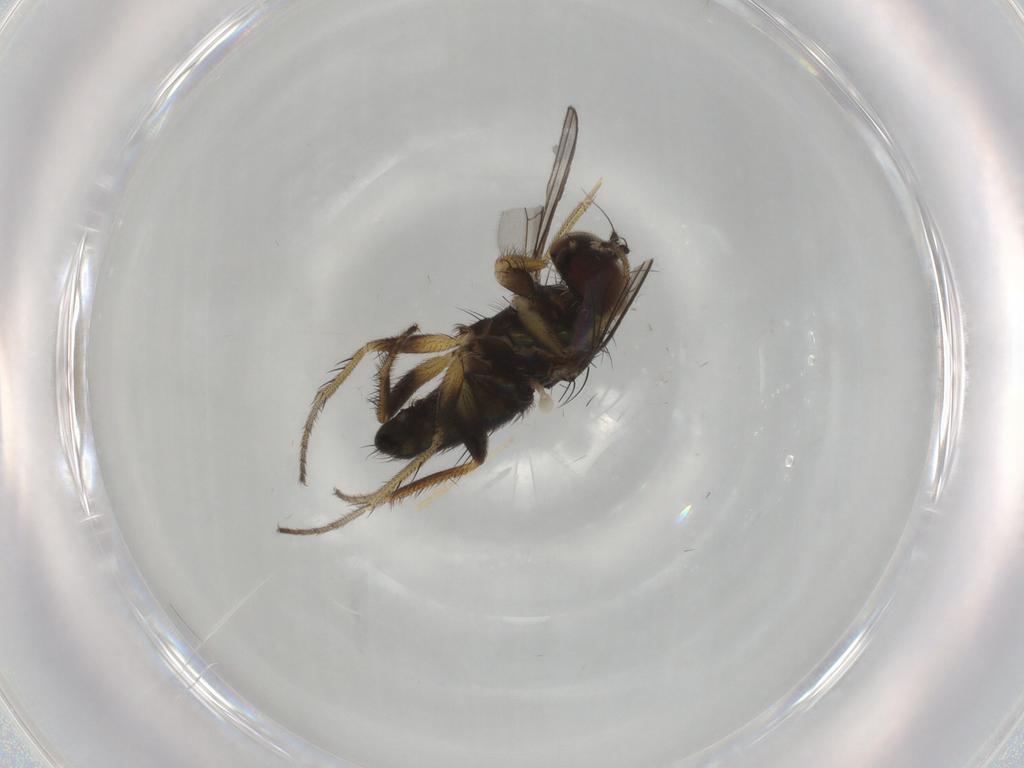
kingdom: Animalia
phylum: Arthropoda
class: Insecta
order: Diptera
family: Dolichopodidae
